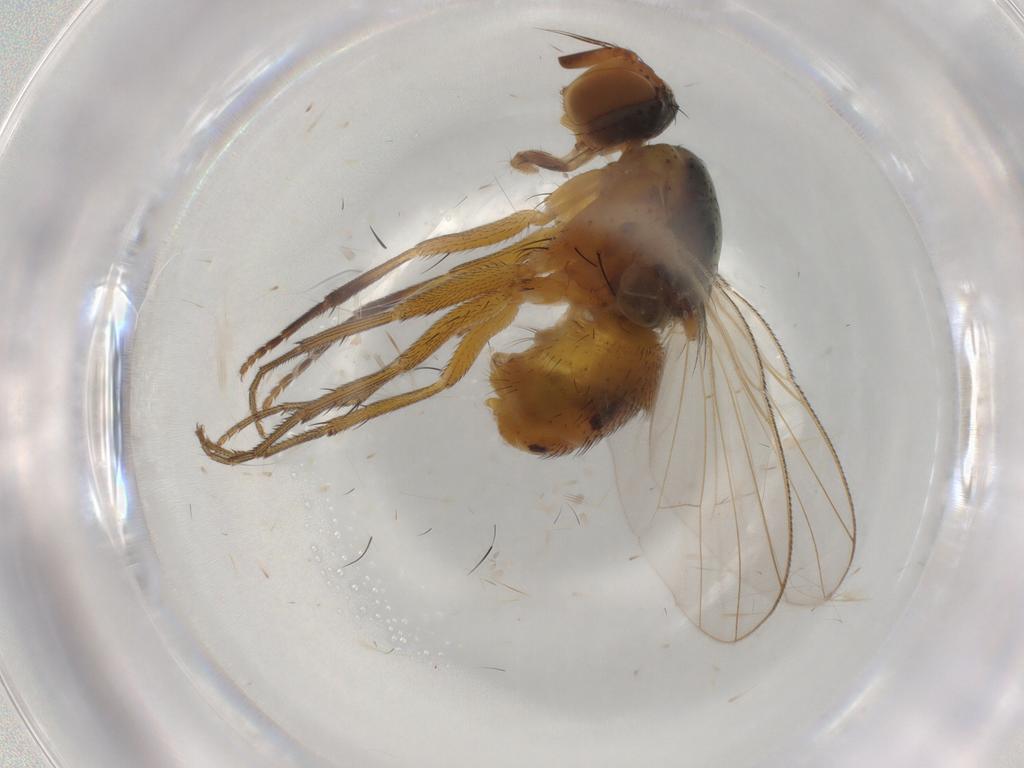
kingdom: Animalia
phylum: Arthropoda
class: Insecta
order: Diptera
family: Muscidae
